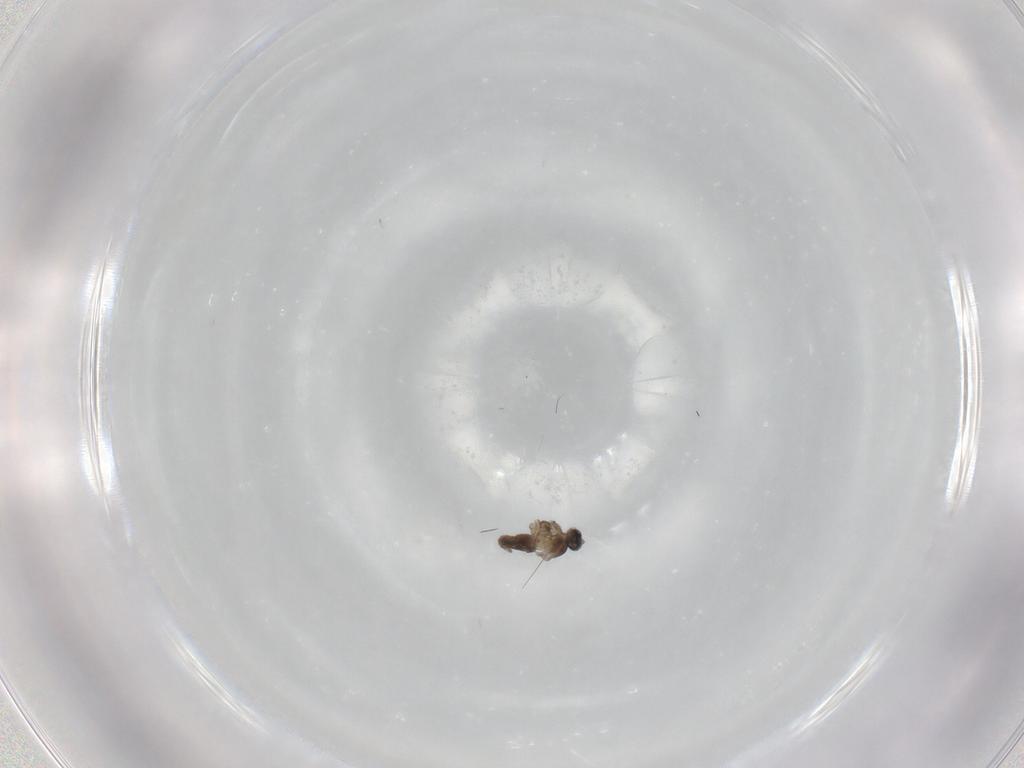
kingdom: Animalia
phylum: Arthropoda
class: Insecta
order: Diptera
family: Cecidomyiidae
